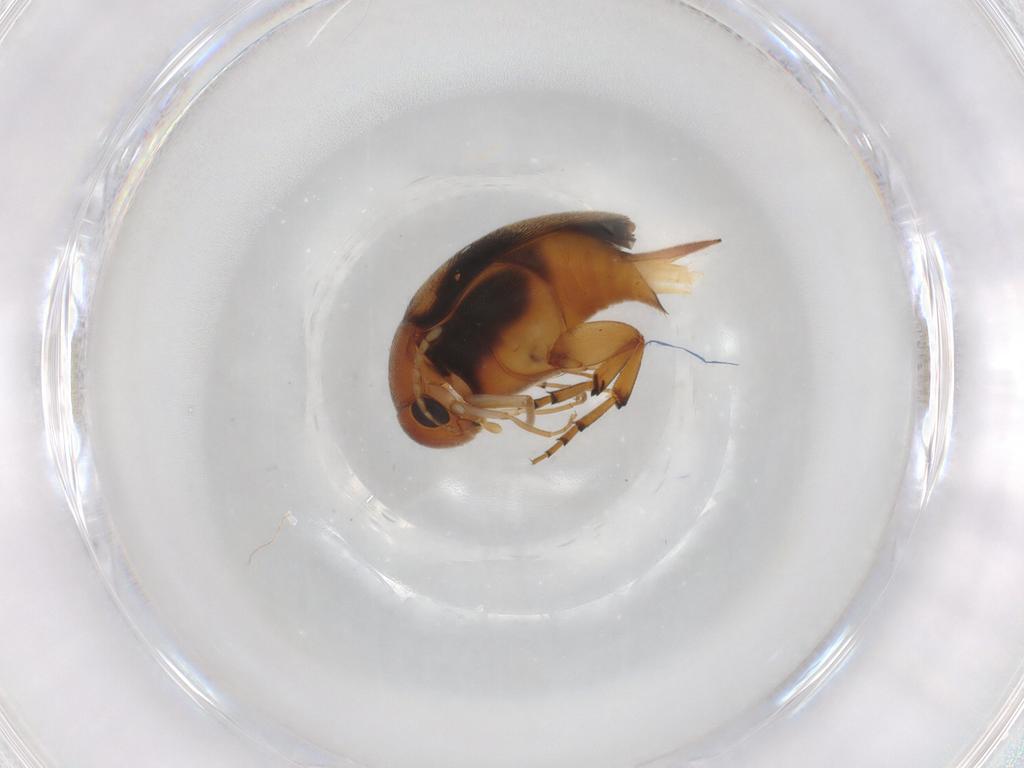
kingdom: Animalia
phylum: Arthropoda
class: Insecta
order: Coleoptera
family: Mordellidae
